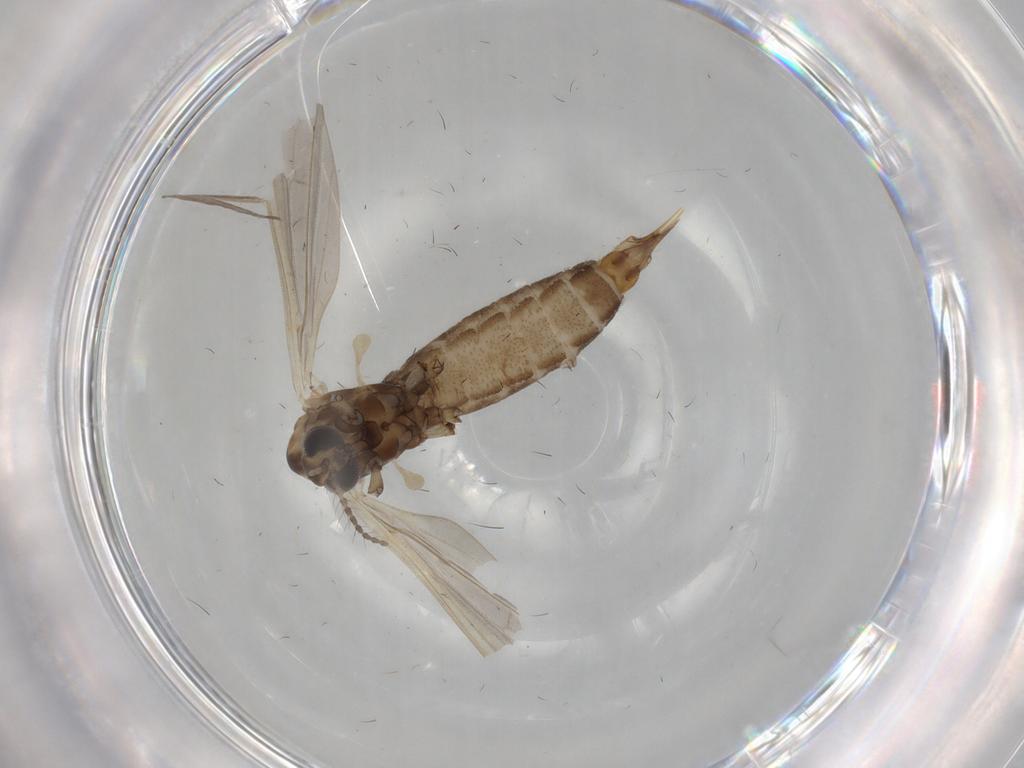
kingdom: Animalia
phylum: Arthropoda
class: Insecta
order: Diptera
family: Limoniidae
